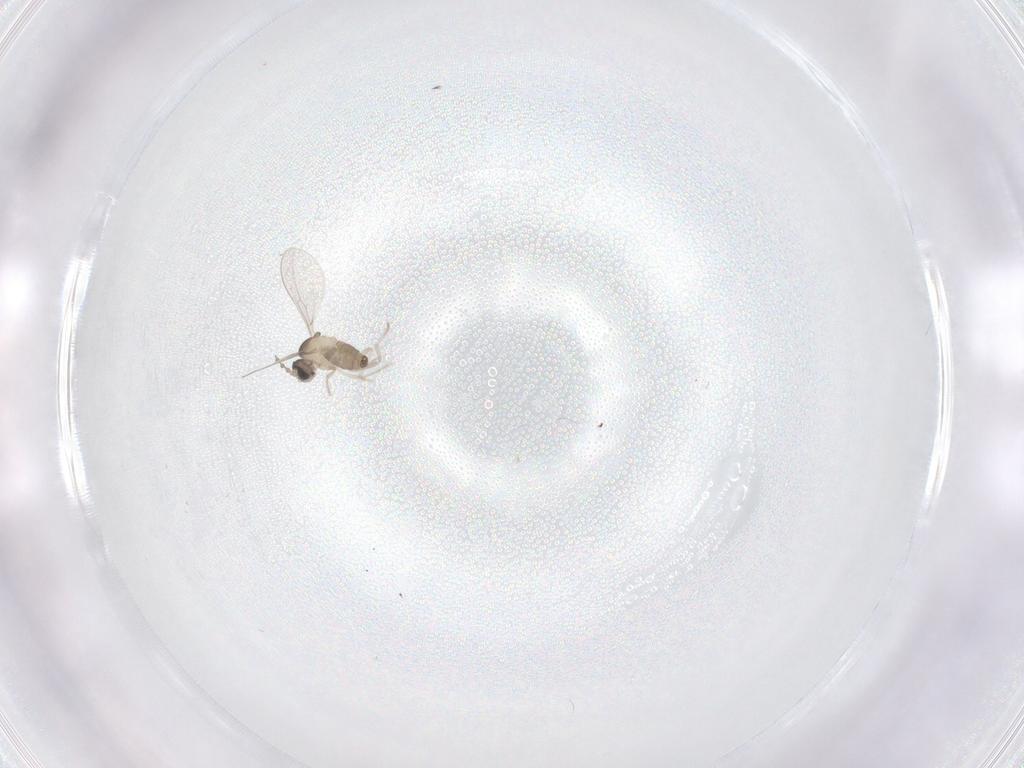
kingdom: Animalia
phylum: Arthropoda
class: Insecta
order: Diptera
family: Cecidomyiidae
